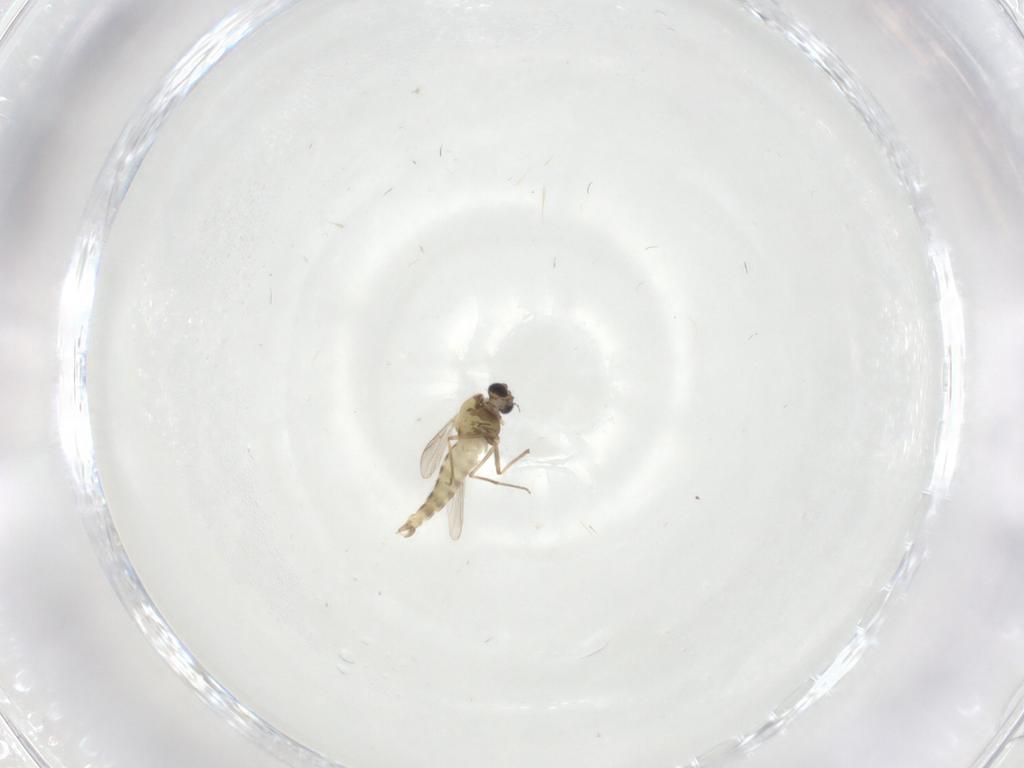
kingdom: Animalia
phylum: Arthropoda
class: Insecta
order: Diptera
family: Chironomidae
